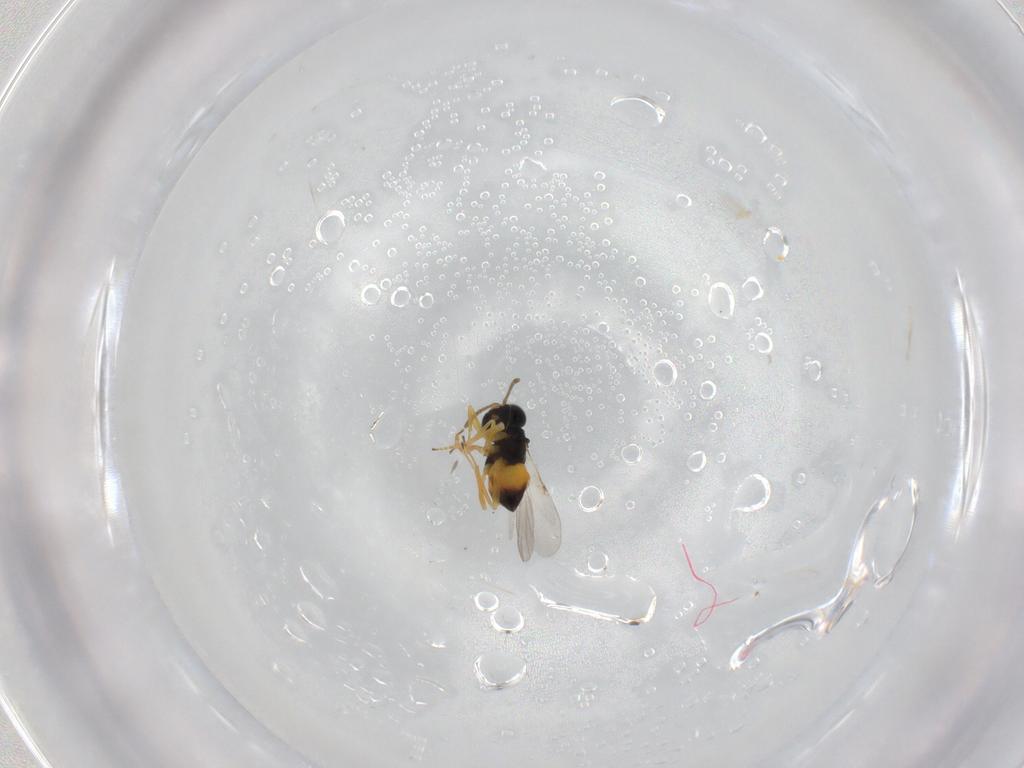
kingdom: Animalia
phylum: Arthropoda
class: Insecta
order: Hymenoptera
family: Encyrtidae
